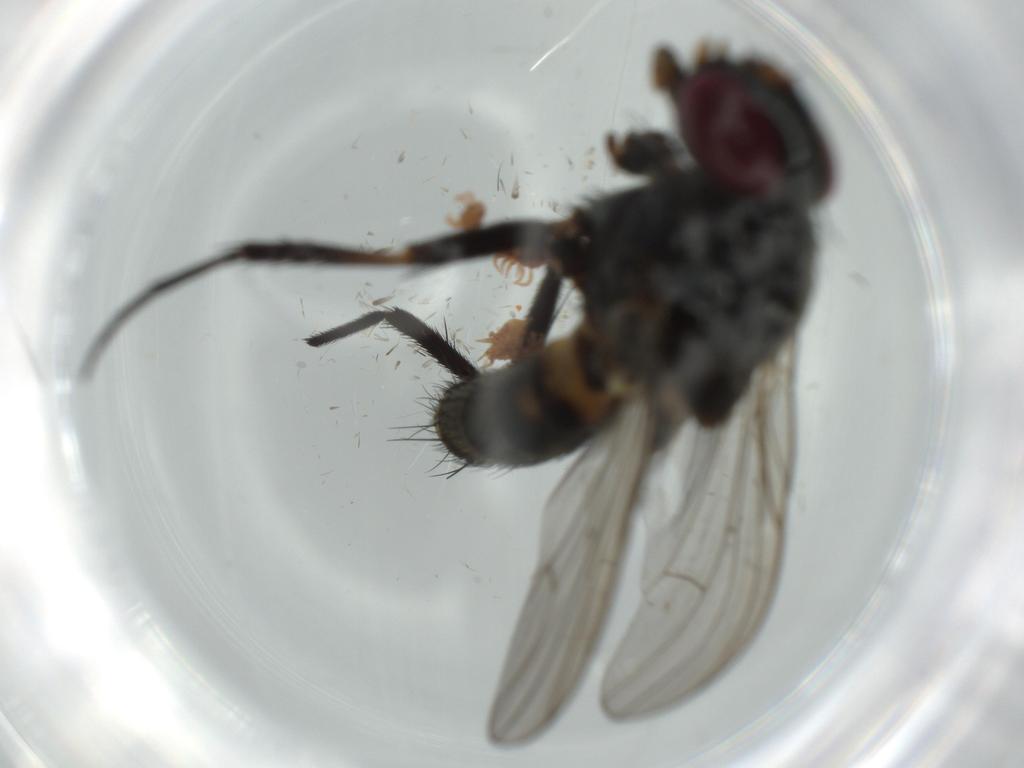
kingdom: Animalia
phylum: Arthropoda
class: Insecta
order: Diptera
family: Fannia
